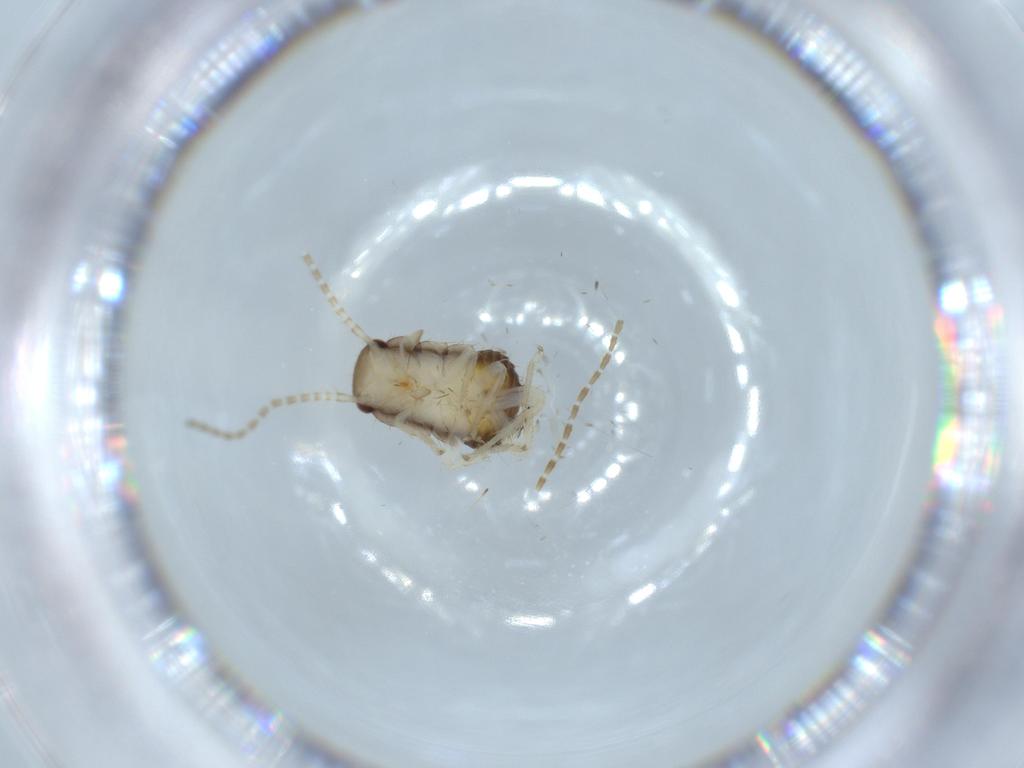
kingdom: Animalia
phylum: Arthropoda
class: Insecta
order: Blattodea
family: Ectobiidae
